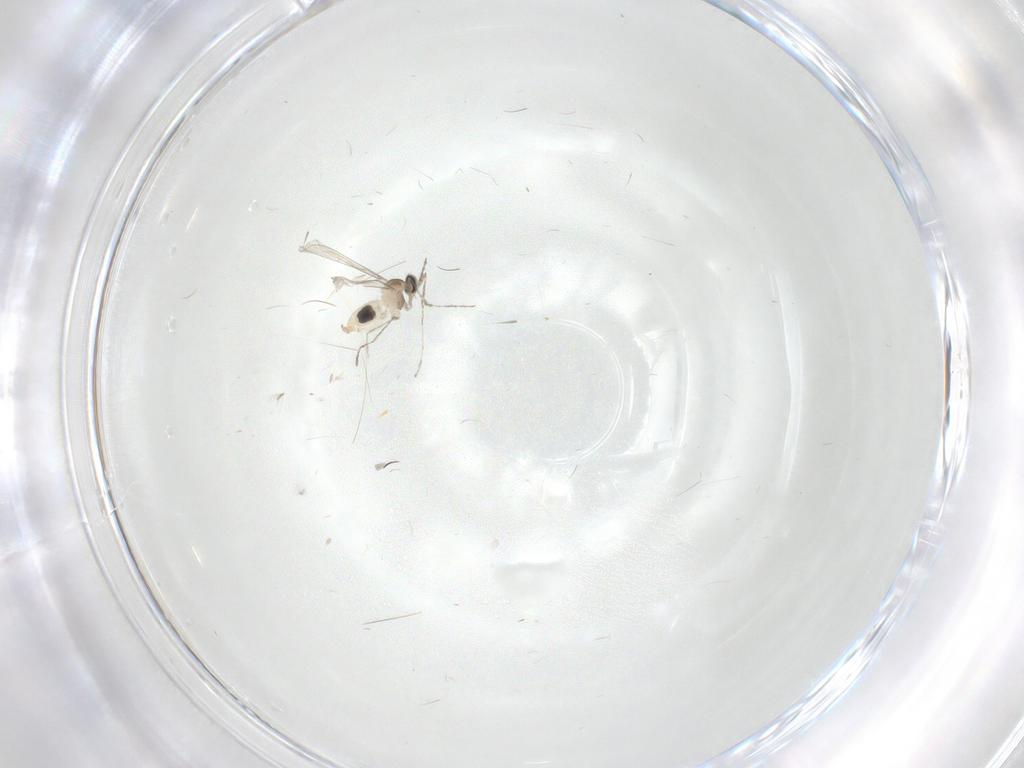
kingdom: Animalia
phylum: Arthropoda
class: Insecta
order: Diptera
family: Cecidomyiidae
